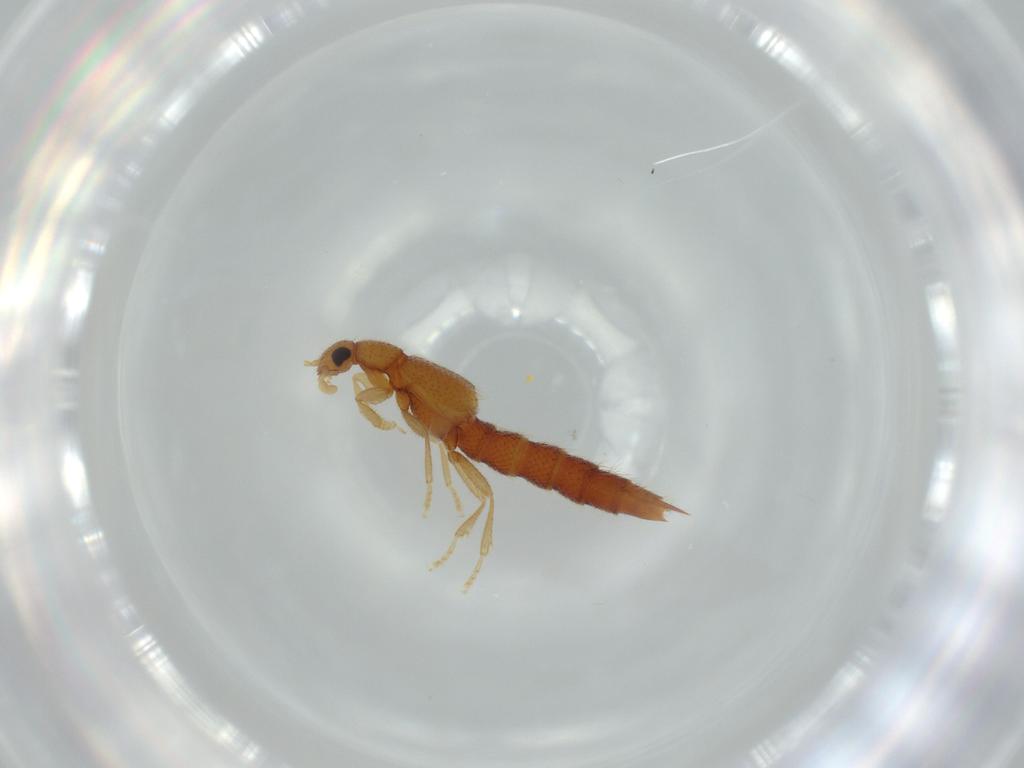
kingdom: Animalia
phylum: Arthropoda
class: Insecta
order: Coleoptera
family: Staphylinidae
